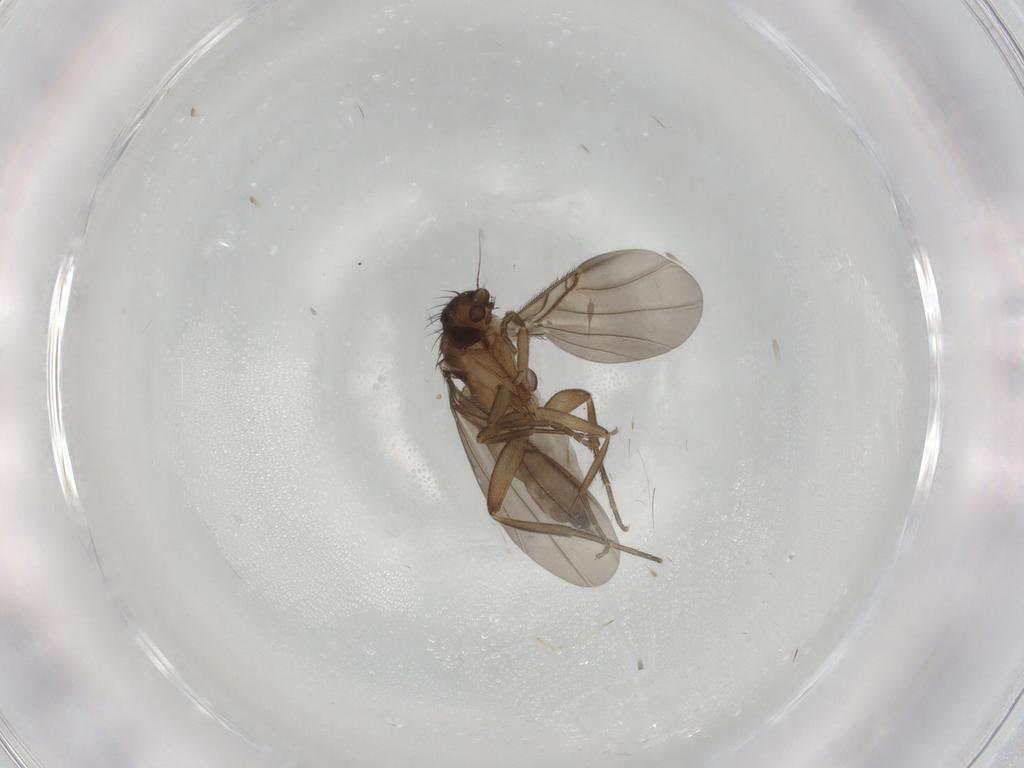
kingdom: Animalia
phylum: Arthropoda
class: Insecta
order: Diptera
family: Phoridae
